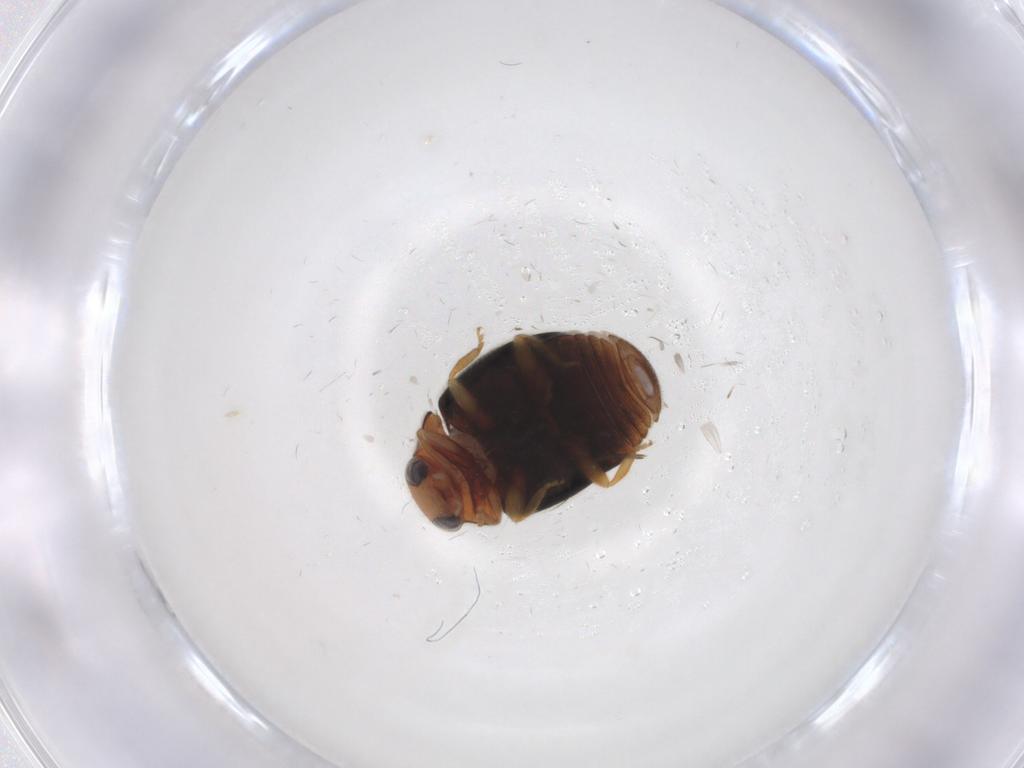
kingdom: Animalia
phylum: Arthropoda
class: Insecta
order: Coleoptera
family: Coccinellidae
